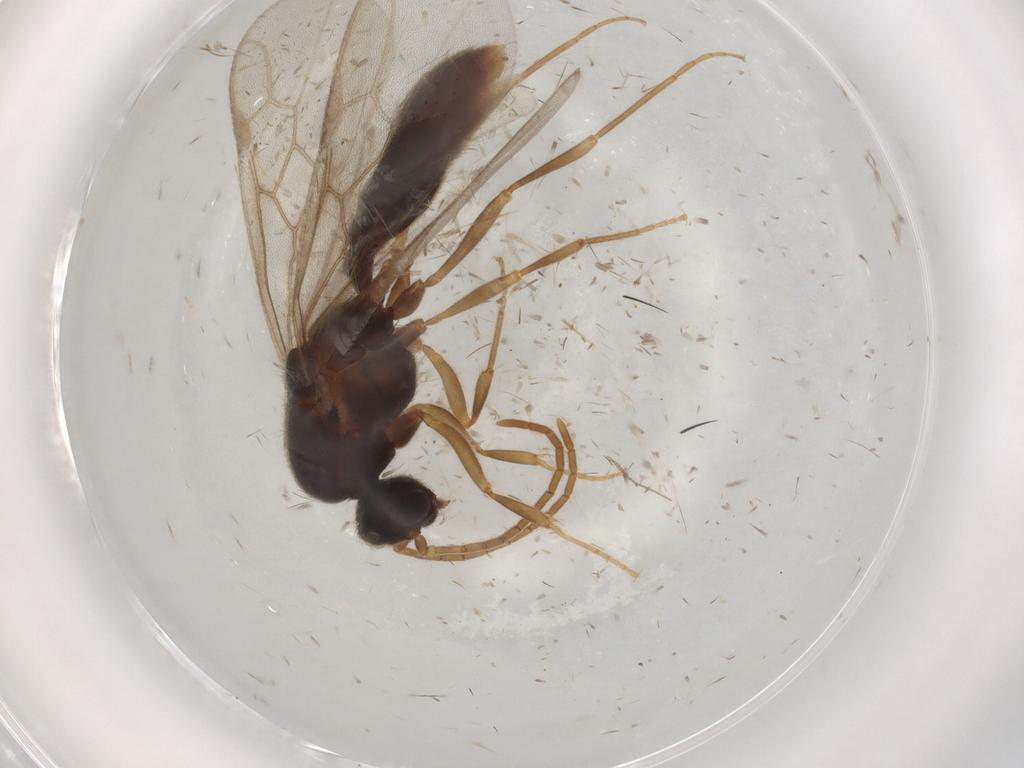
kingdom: Animalia
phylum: Arthropoda
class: Insecta
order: Hymenoptera
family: Formicidae
